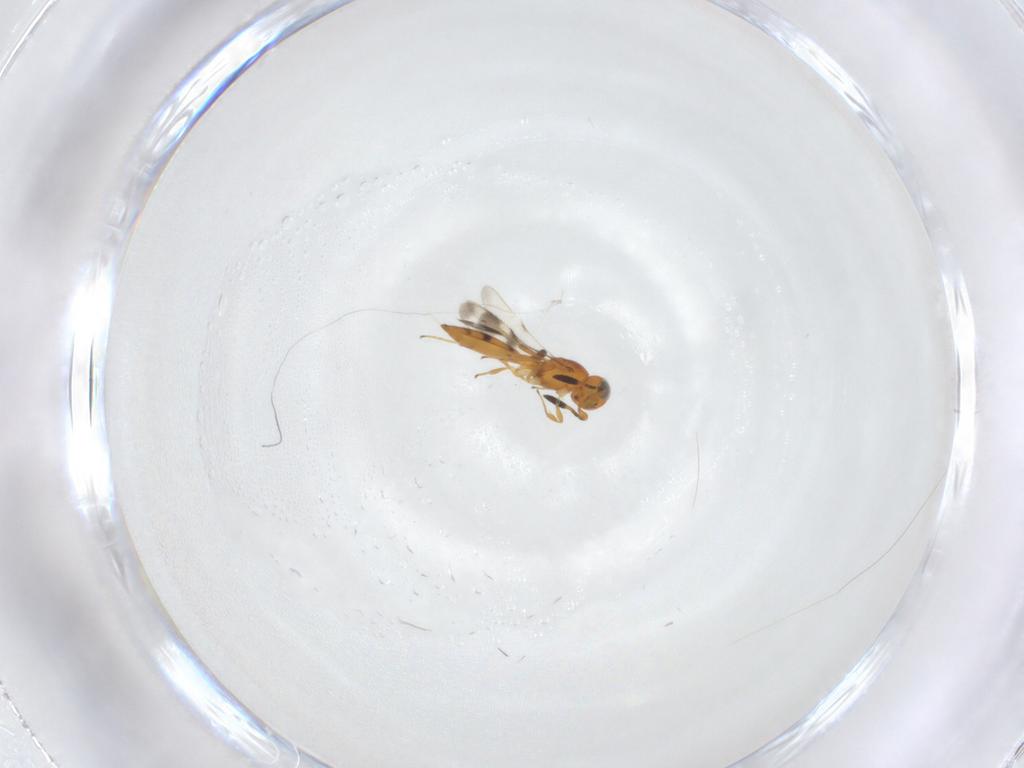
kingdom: Animalia
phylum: Arthropoda
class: Insecta
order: Hymenoptera
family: Scelionidae
